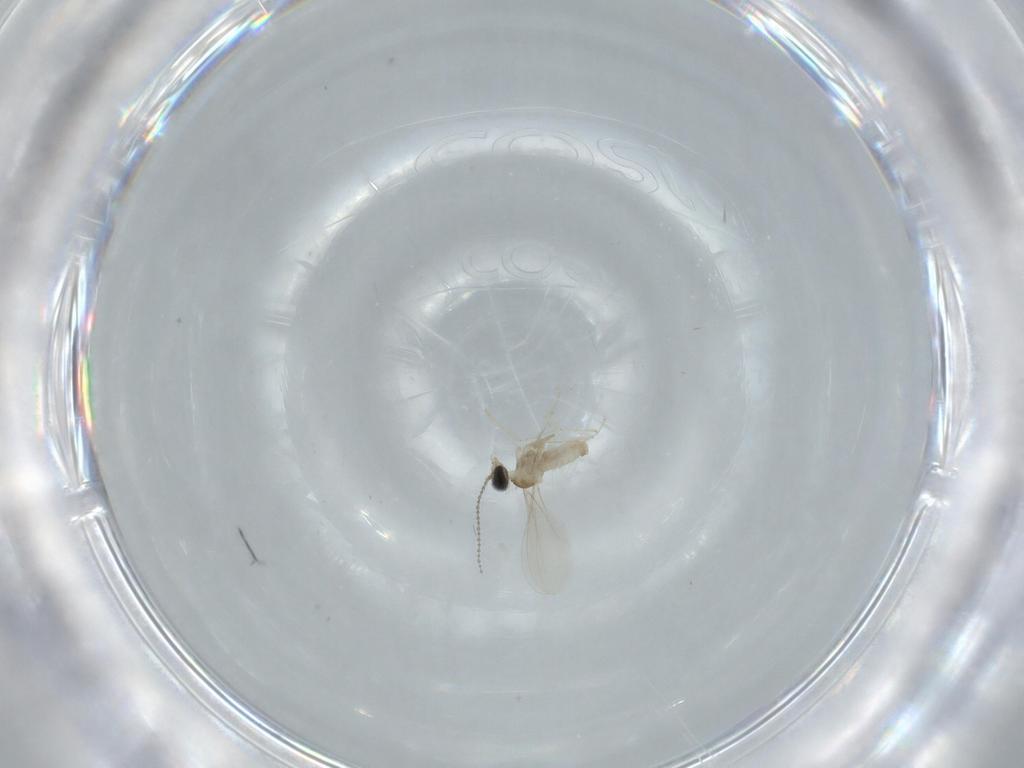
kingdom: Animalia
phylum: Arthropoda
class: Insecta
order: Diptera
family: Cecidomyiidae
